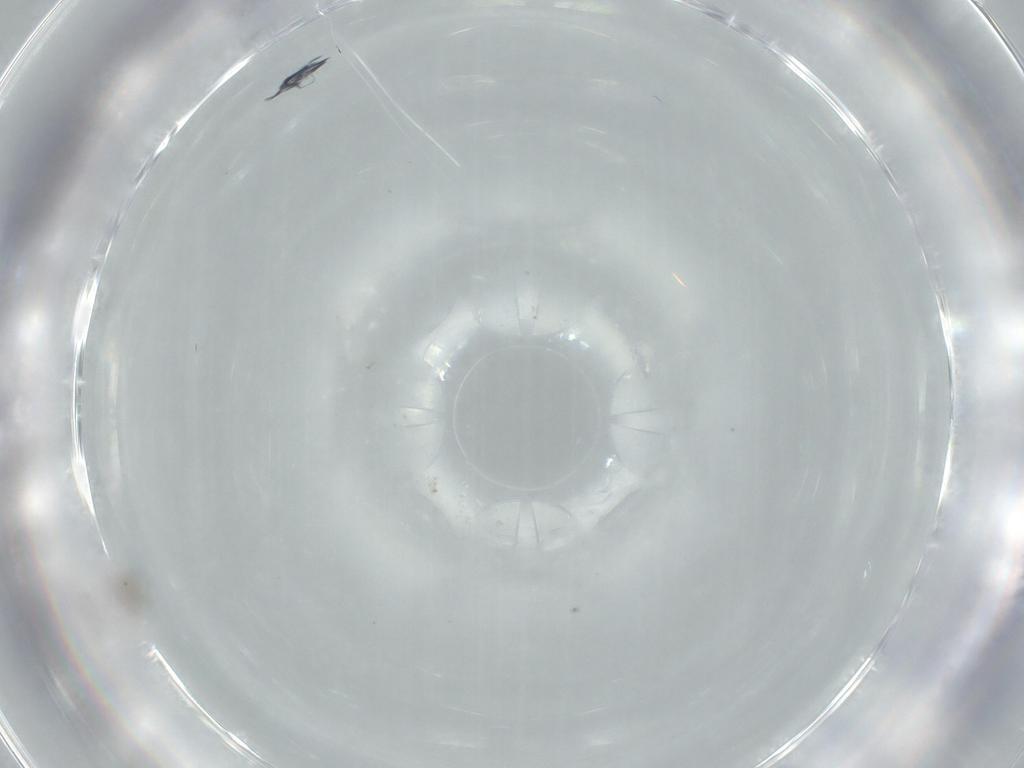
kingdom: Animalia
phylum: Arthropoda
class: Insecta
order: Hymenoptera
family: Mymaridae
